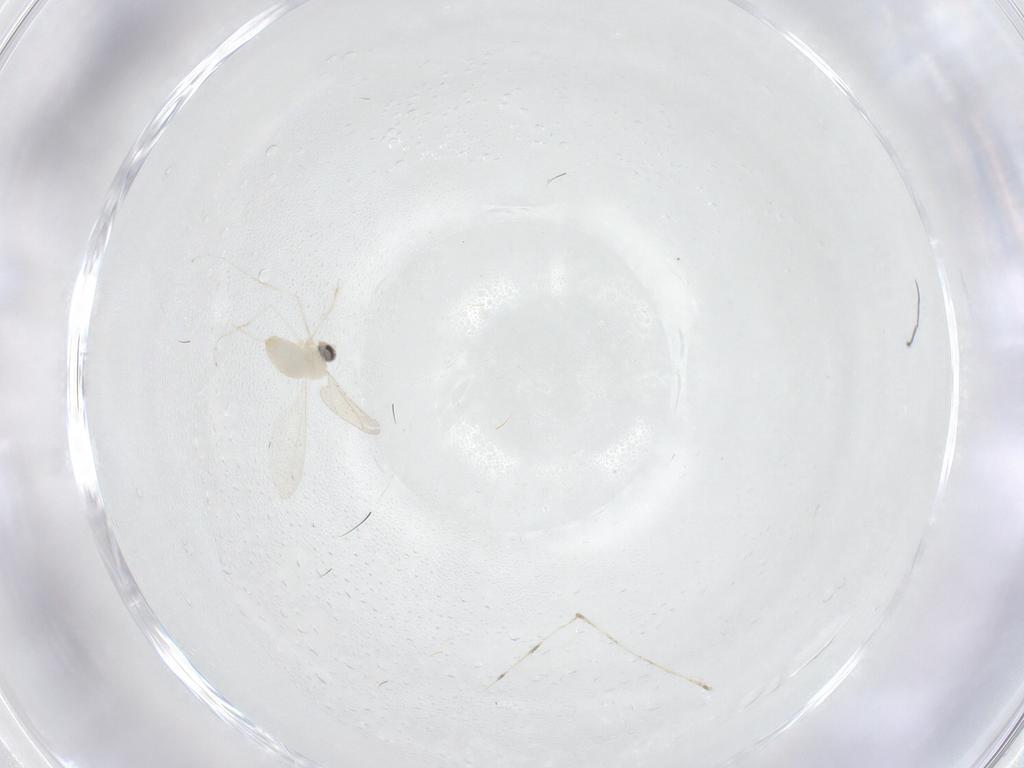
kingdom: Animalia
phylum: Arthropoda
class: Insecta
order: Diptera
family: Chironomidae
